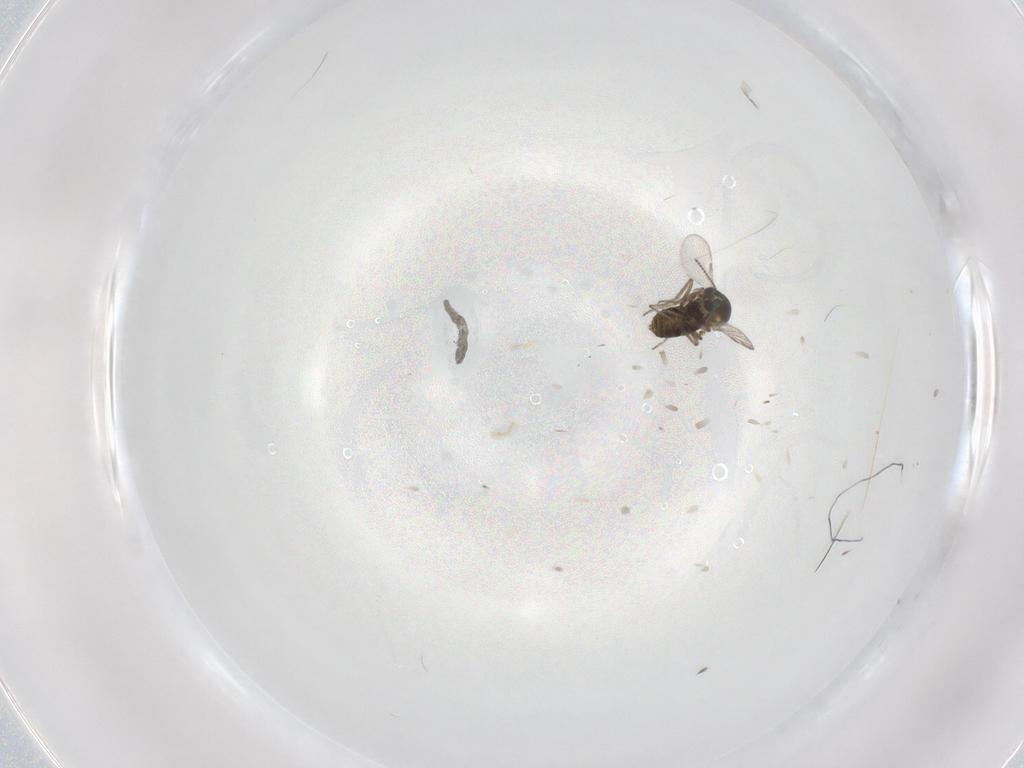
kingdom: Animalia
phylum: Arthropoda
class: Insecta
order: Diptera
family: Ceratopogonidae
